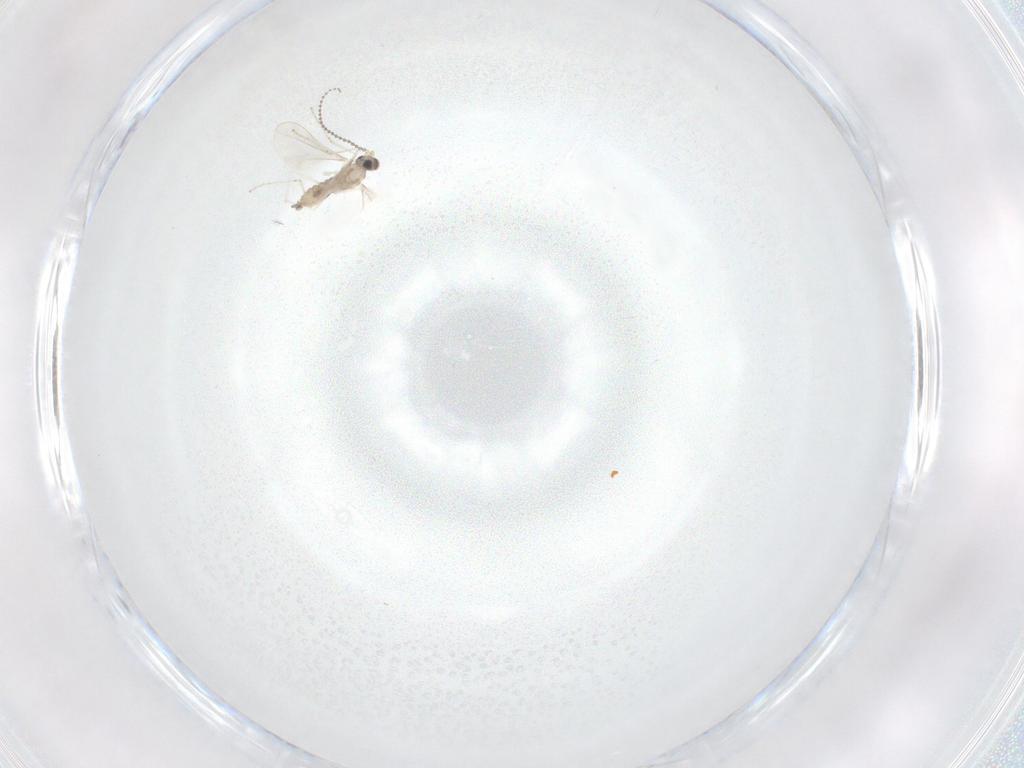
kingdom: Animalia
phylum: Arthropoda
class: Insecta
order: Diptera
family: Cecidomyiidae
